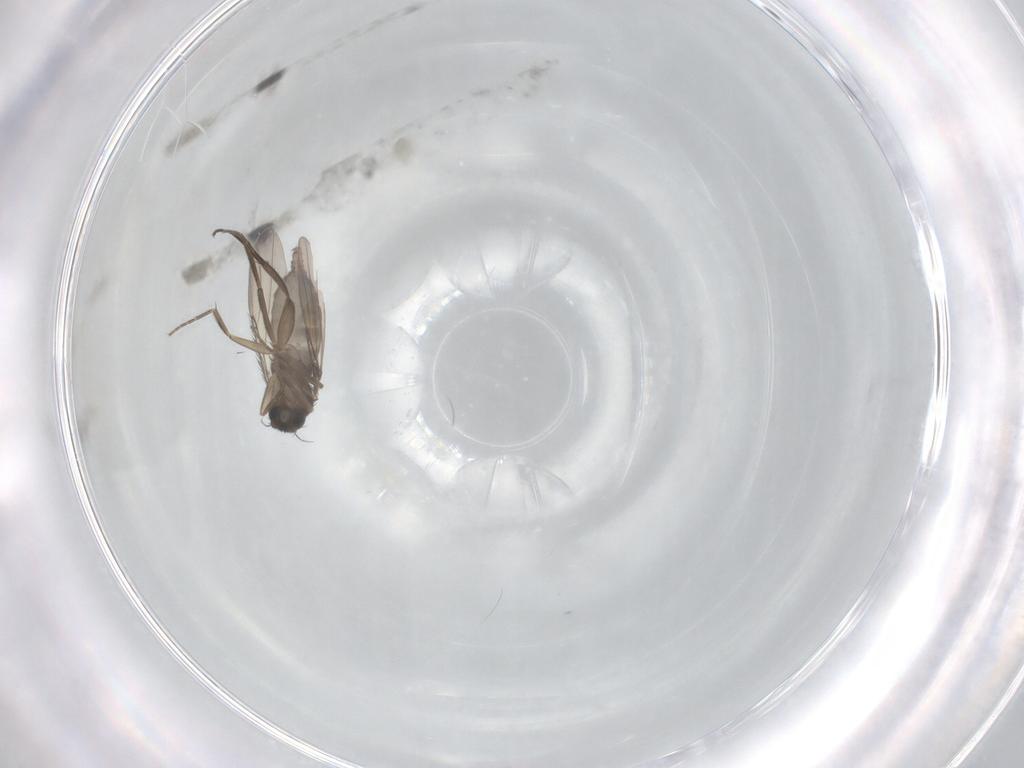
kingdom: Animalia
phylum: Arthropoda
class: Insecta
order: Diptera
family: Phoridae
